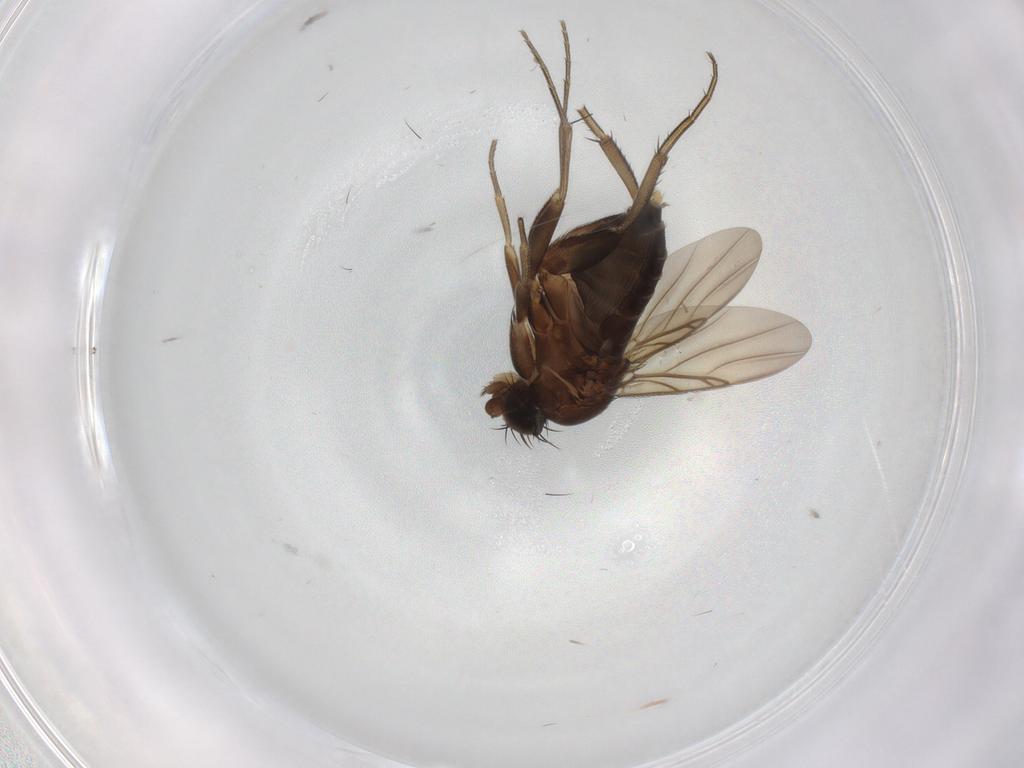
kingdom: Animalia
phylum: Arthropoda
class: Insecta
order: Diptera
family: Phoridae
